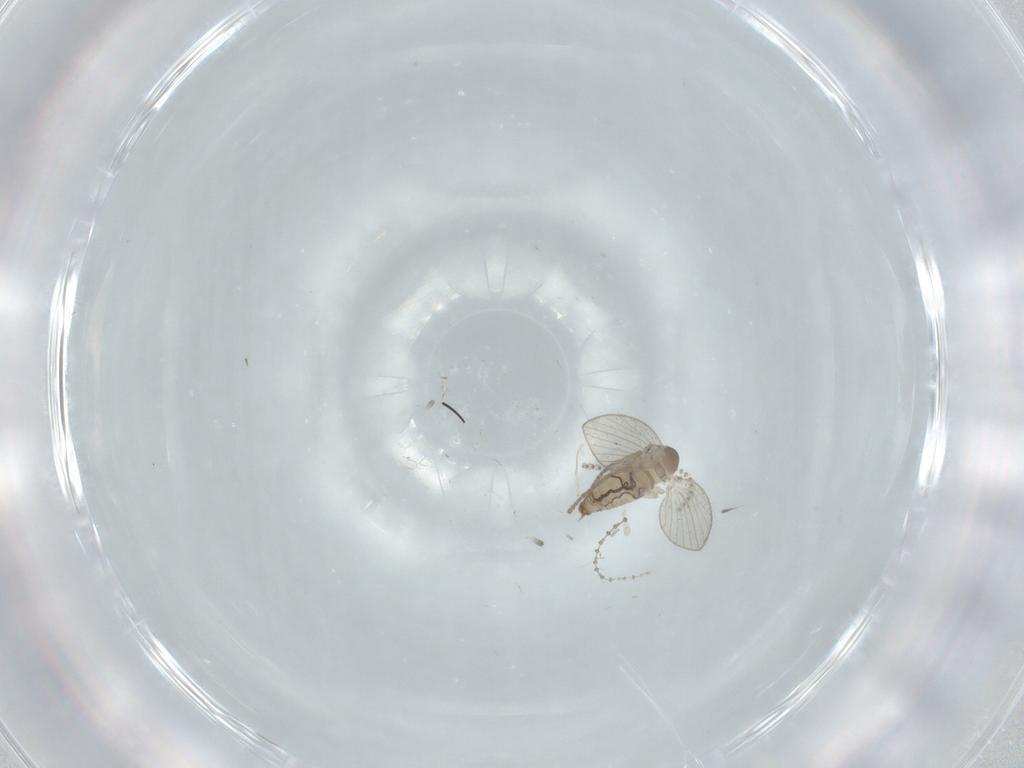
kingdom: Animalia
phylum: Arthropoda
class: Insecta
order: Diptera
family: Psychodidae
